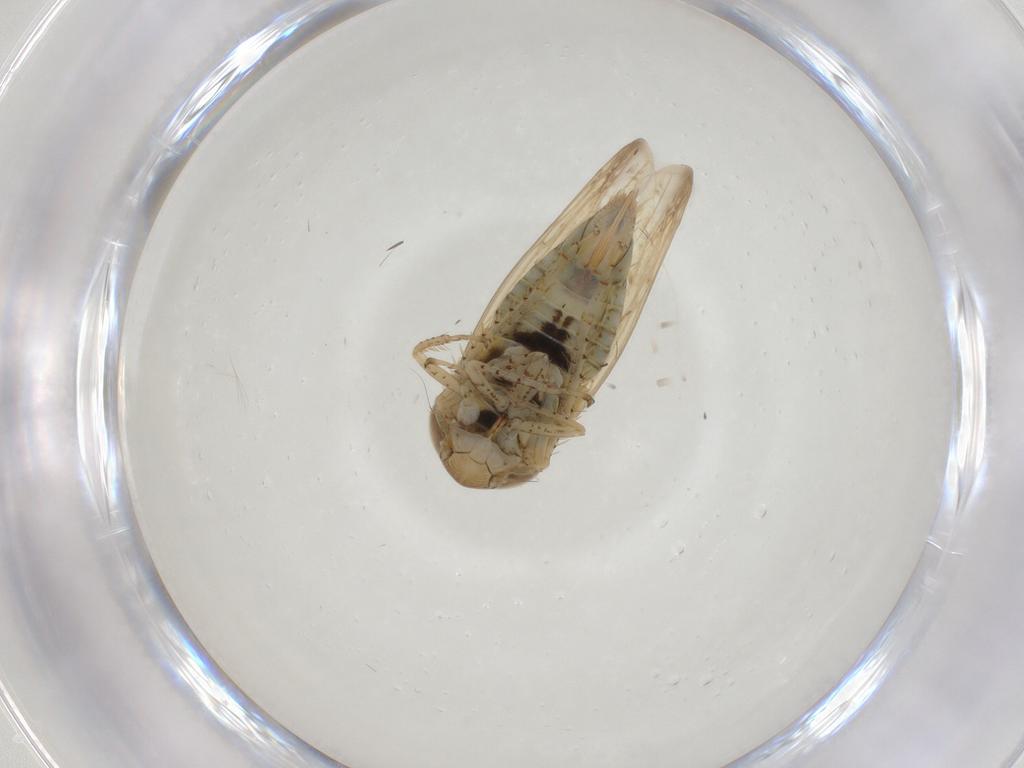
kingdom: Animalia
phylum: Arthropoda
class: Insecta
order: Hemiptera
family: Cicadellidae
